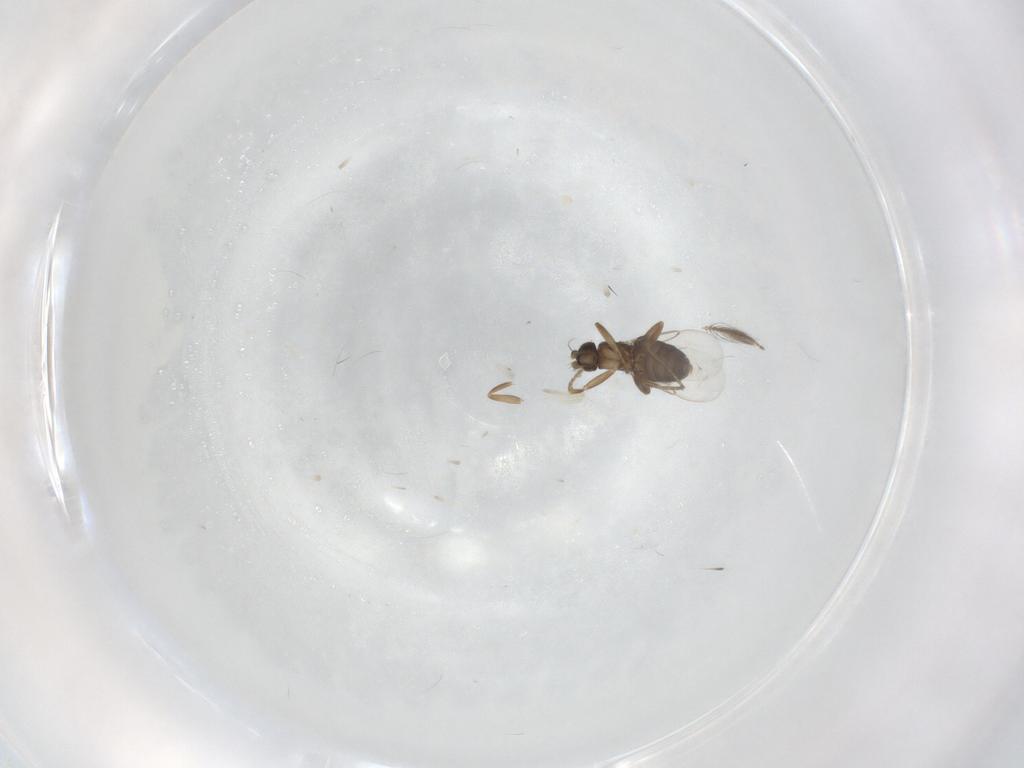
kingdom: Animalia
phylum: Arthropoda
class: Insecta
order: Diptera
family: Phoridae
